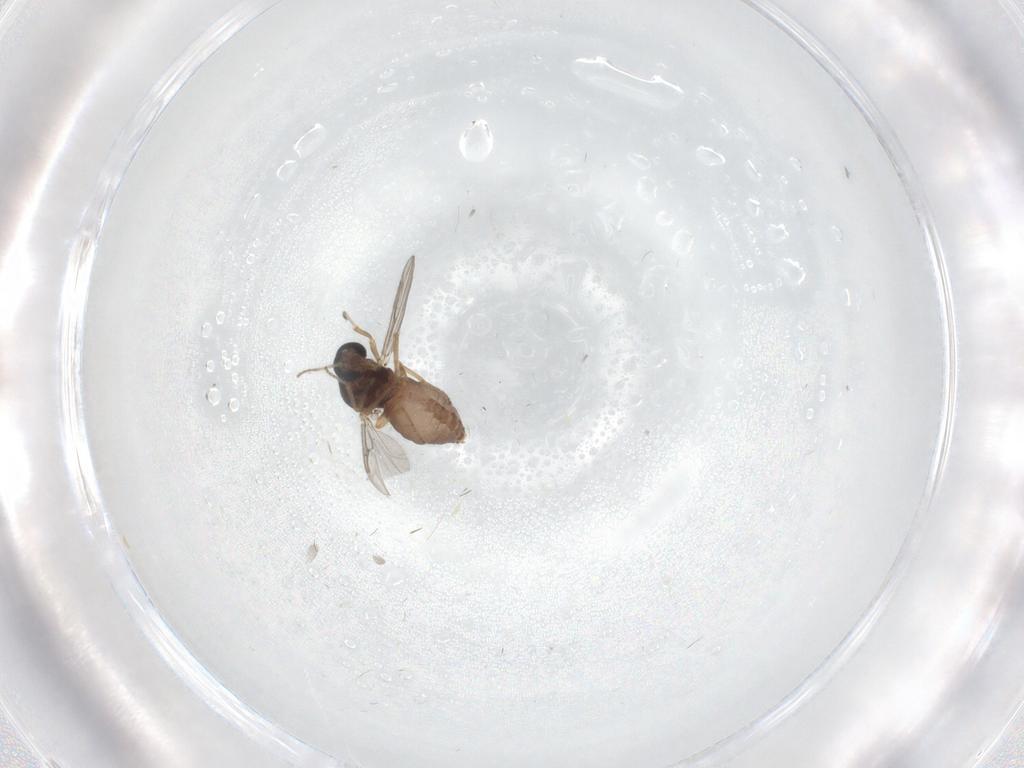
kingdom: Animalia
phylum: Arthropoda
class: Insecta
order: Diptera
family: Ceratopogonidae
